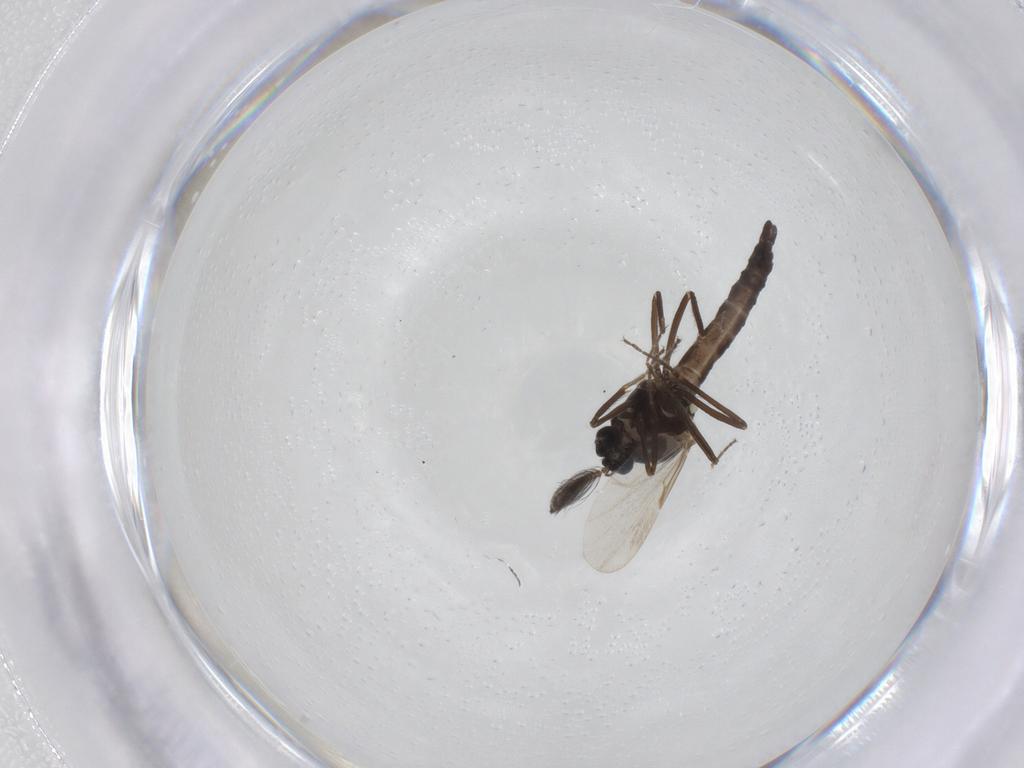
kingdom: Animalia
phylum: Arthropoda
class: Insecta
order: Diptera
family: Ceratopogonidae
